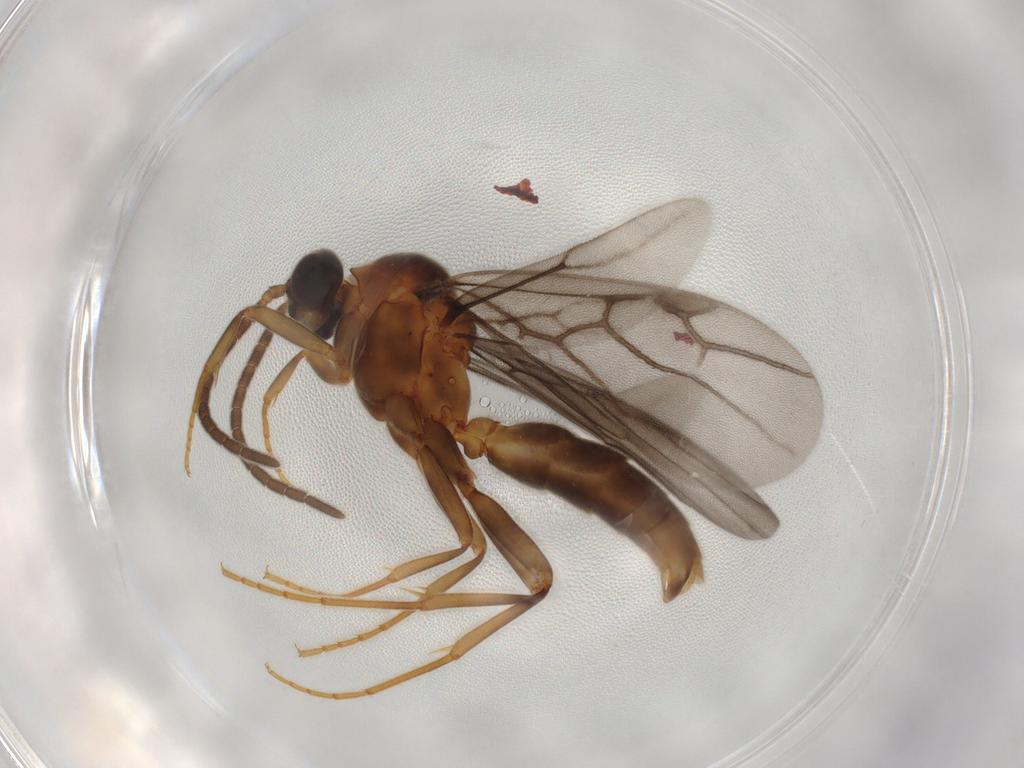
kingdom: Animalia
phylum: Arthropoda
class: Insecta
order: Hymenoptera
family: Formicidae
